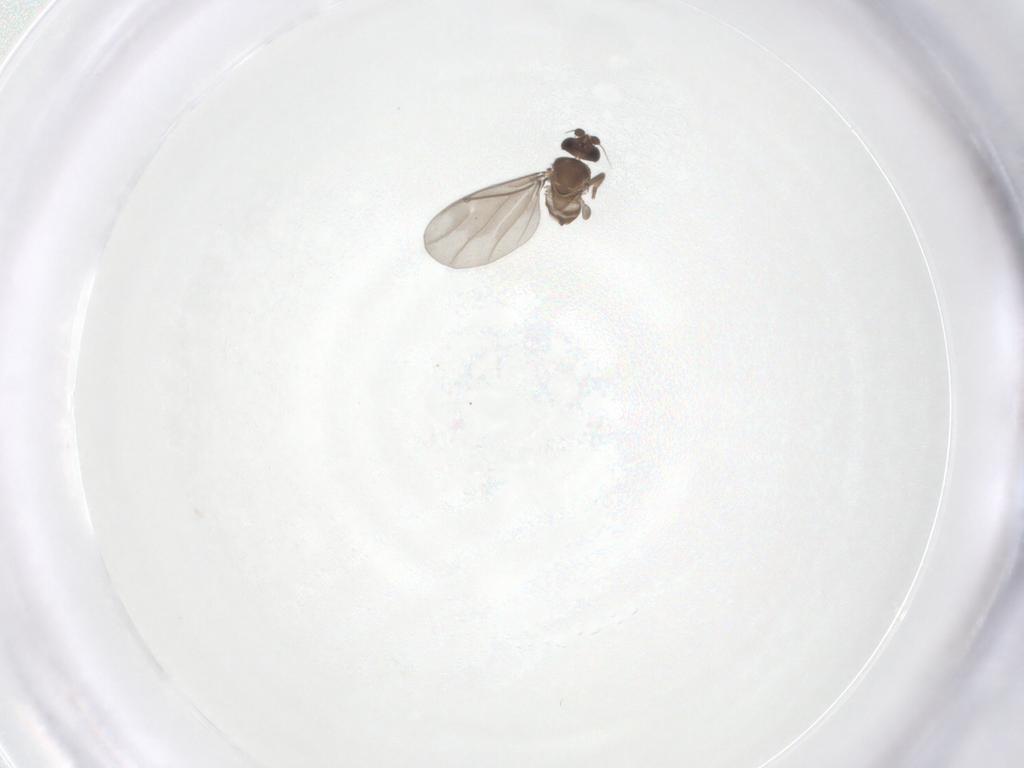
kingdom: Animalia
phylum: Arthropoda
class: Insecta
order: Diptera
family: Phoridae
